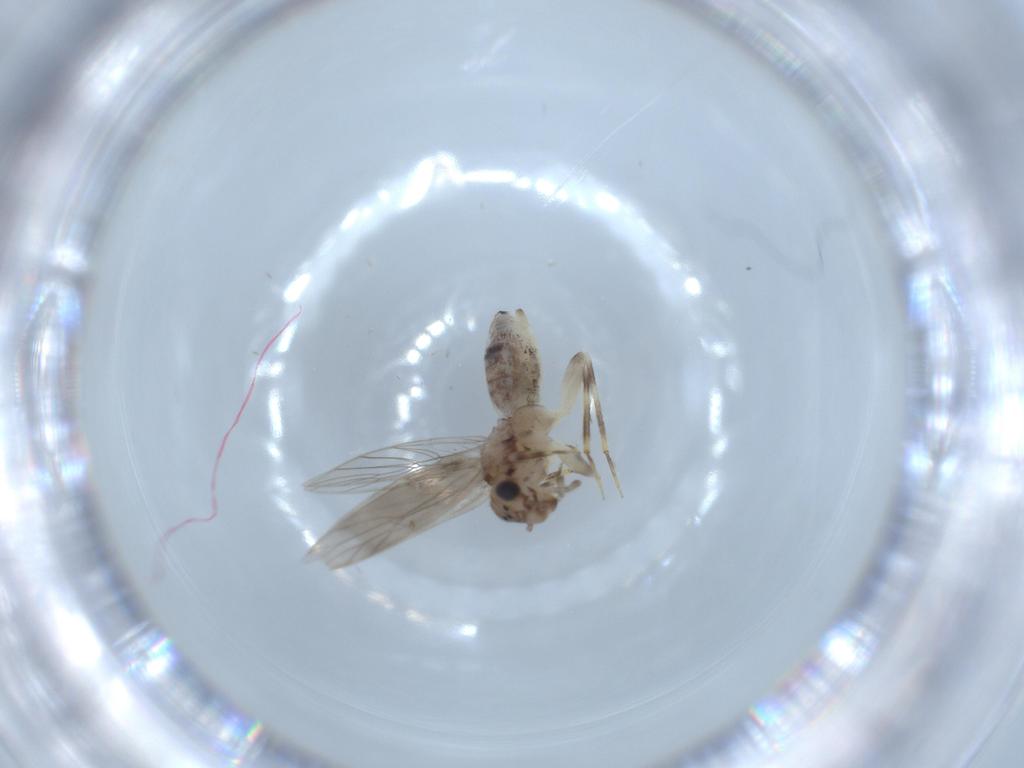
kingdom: Animalia
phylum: Arthropoda
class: Insecta
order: Psocodea
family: Lepidopsocidae
